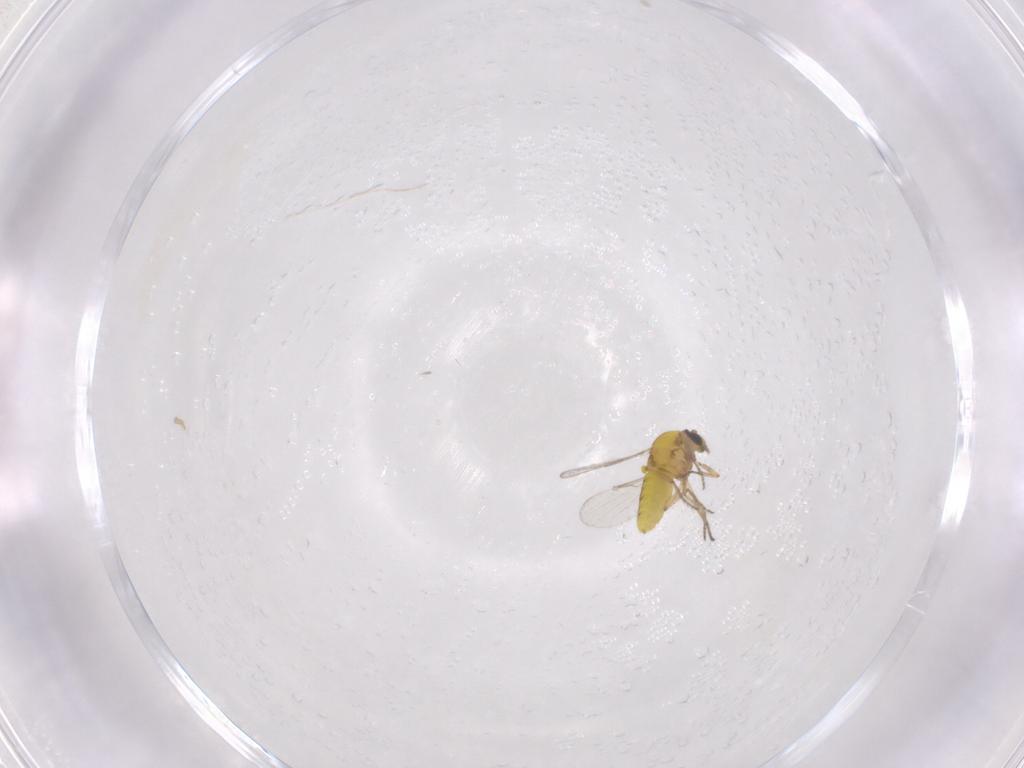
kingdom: Animalia
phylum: Arthropoda
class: Insecta
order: Diptera
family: Ceratopogonidae
